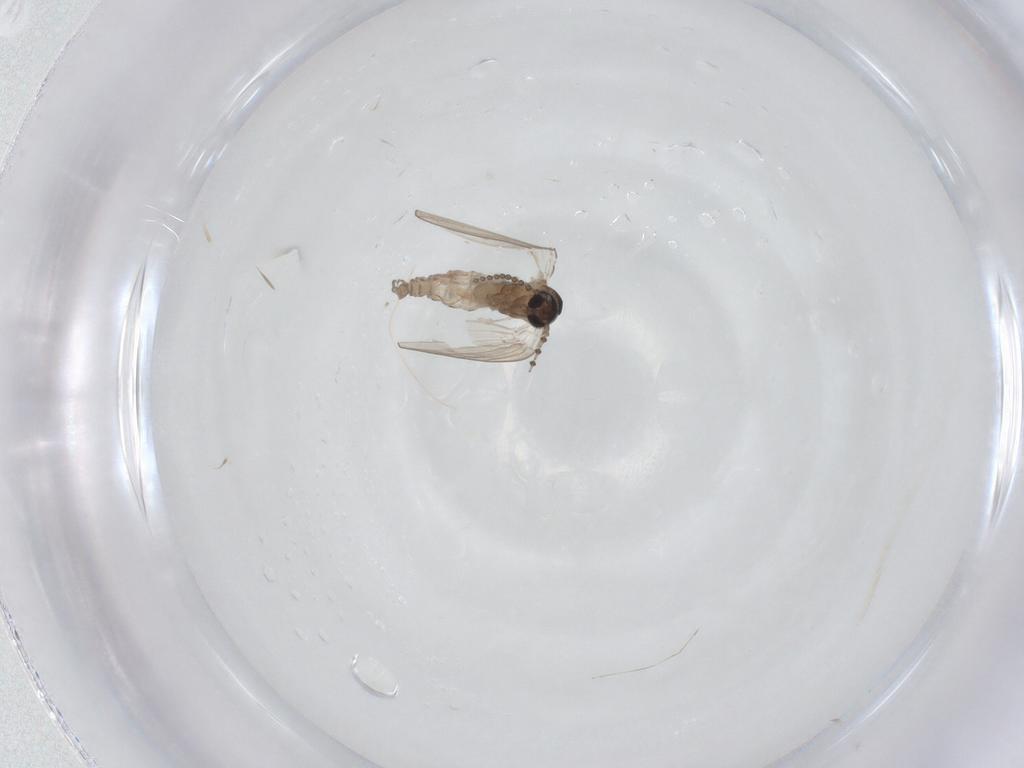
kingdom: Animalia
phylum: Arthropoda
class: Insecta
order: Diptera
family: Psychodidae
